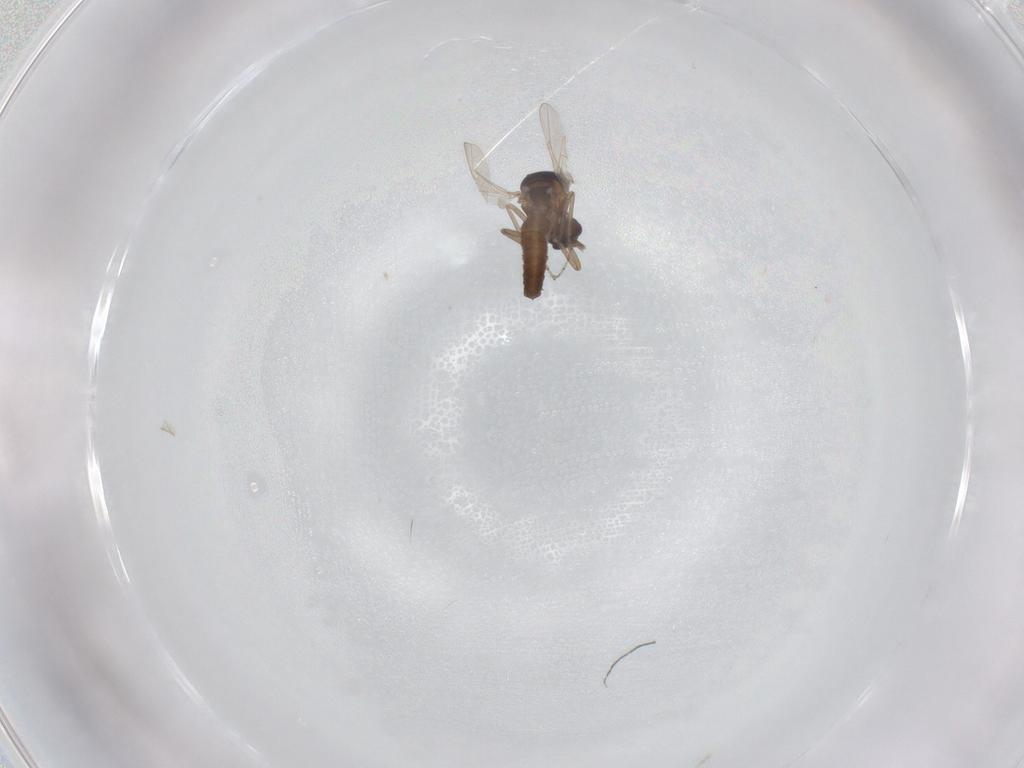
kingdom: Animalia
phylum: Arthropoda
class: Insecta
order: Diptera
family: Ceratopogonidae
